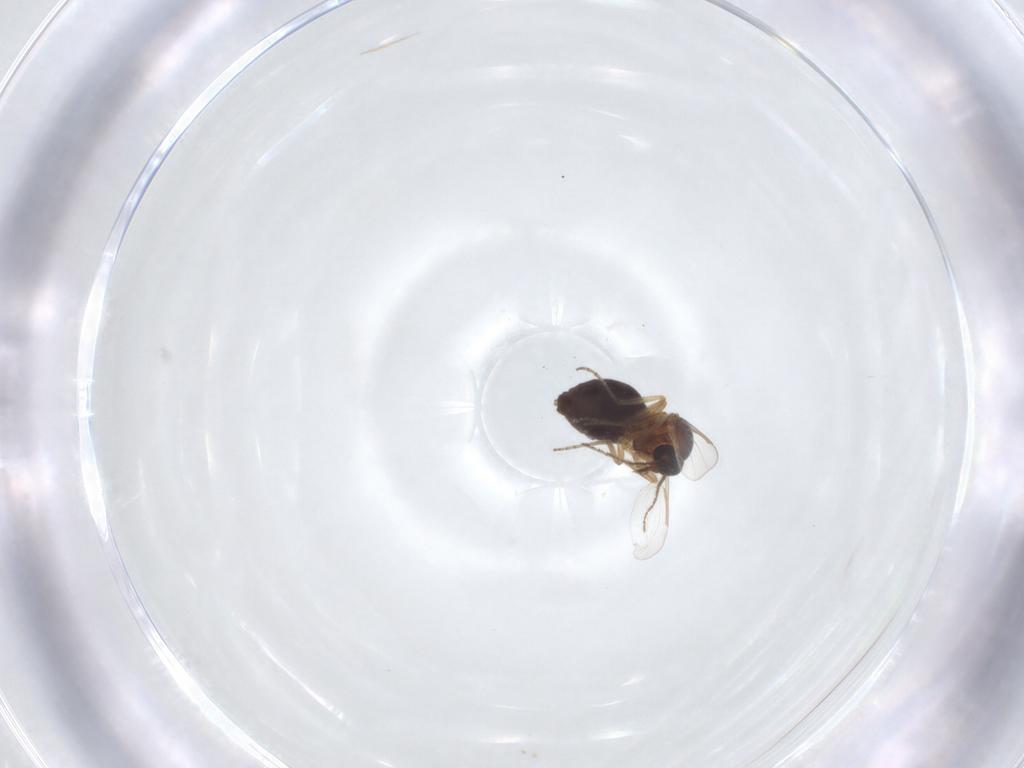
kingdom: Animalia
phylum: Arthropoda
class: Insecta
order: Diptera
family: Ceratopogonidae
